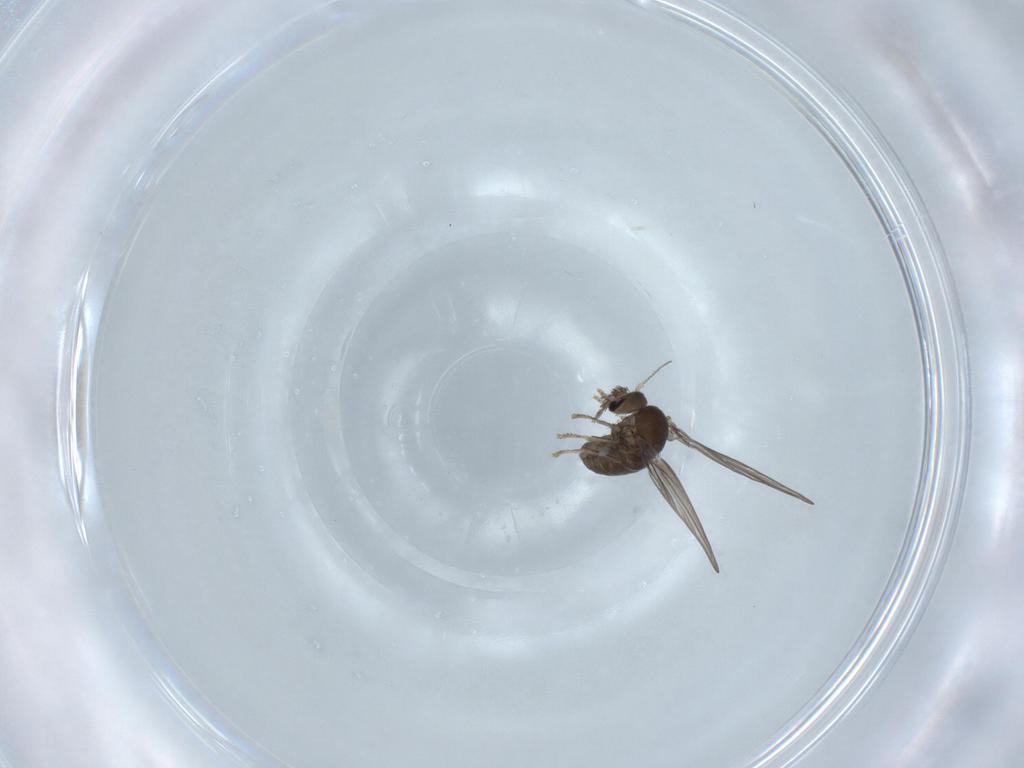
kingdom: Animalia
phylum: Arthropoda
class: Insecta
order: Diptera
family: Psychodidae
